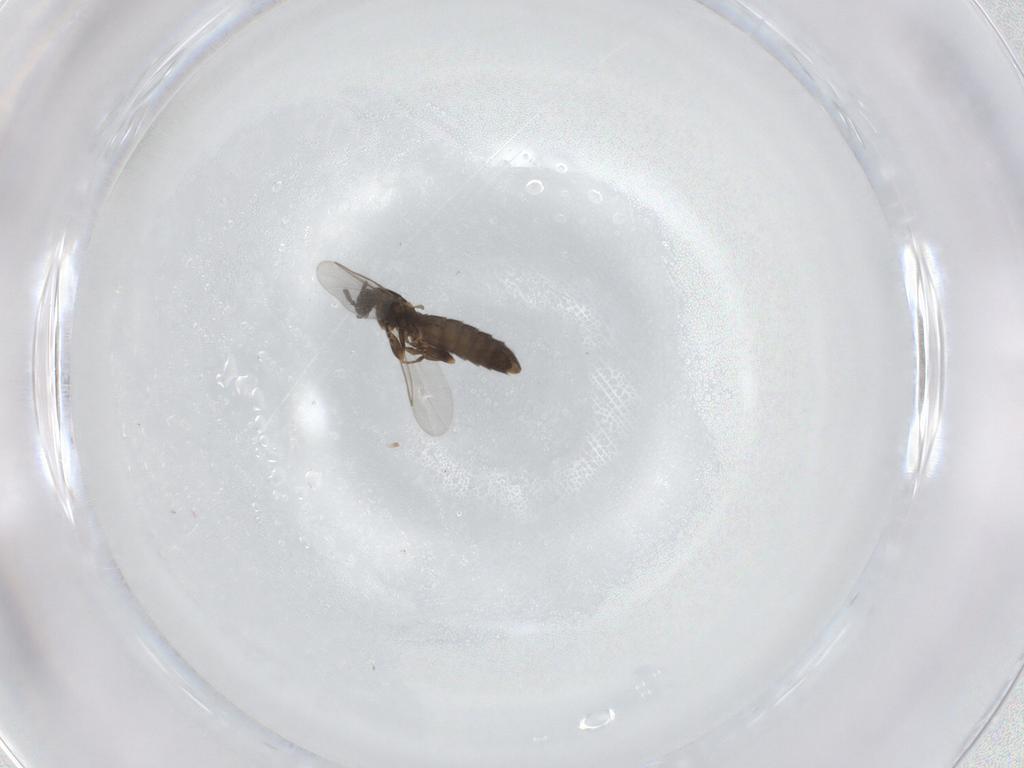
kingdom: Animalia
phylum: Arthropoda
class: Insecta
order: Diptera
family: Scatopsidae
